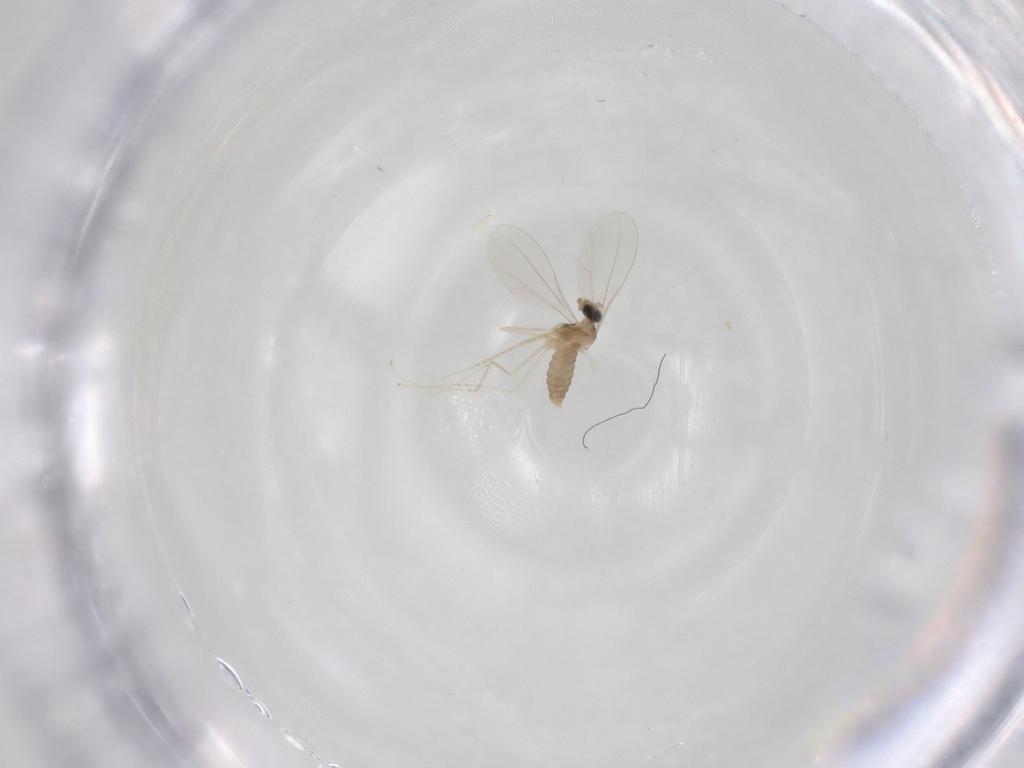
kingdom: Animalia
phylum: Arthropoda
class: Insecta
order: Diptera
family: Cecidomyiidae
